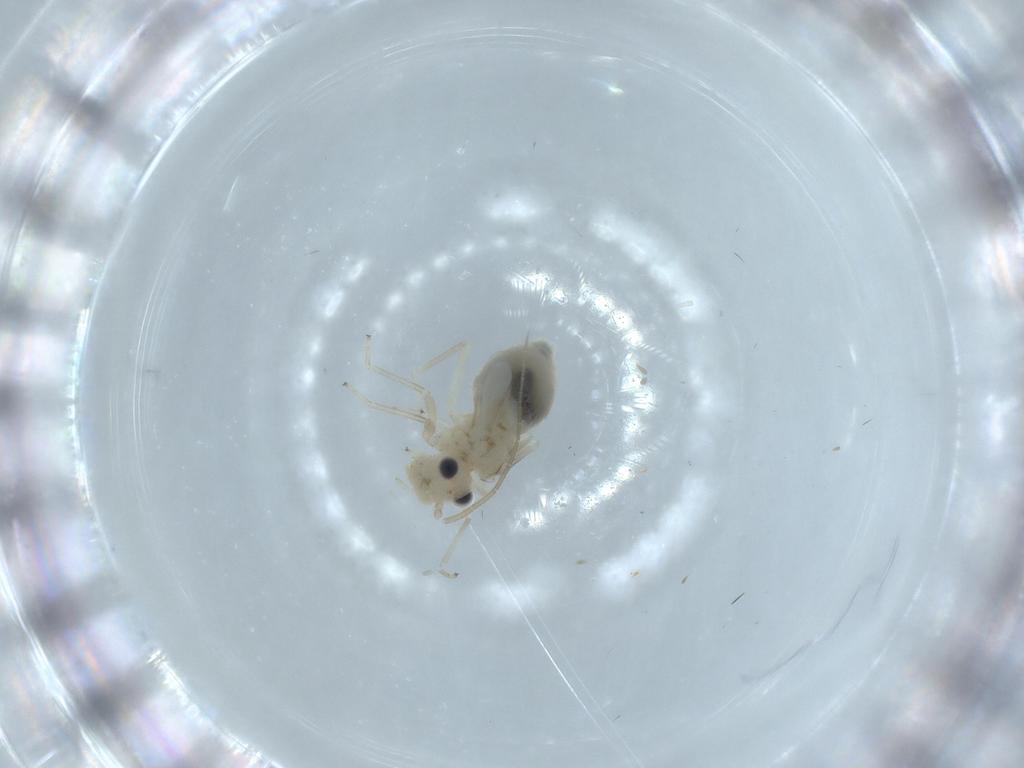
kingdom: Animalia
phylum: Arthropoda
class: Insecta
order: Psocodea
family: Caeciliusidae
